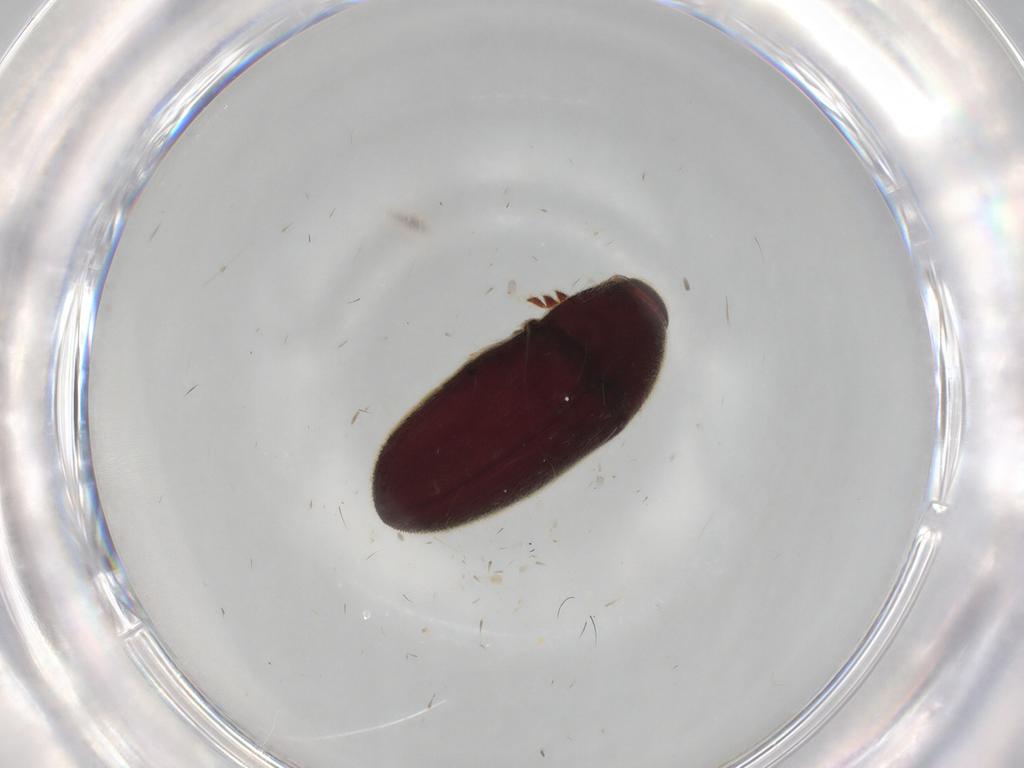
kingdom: Animalia
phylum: Arthropoda
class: Insecta
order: Coleoptera
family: Throscidae
